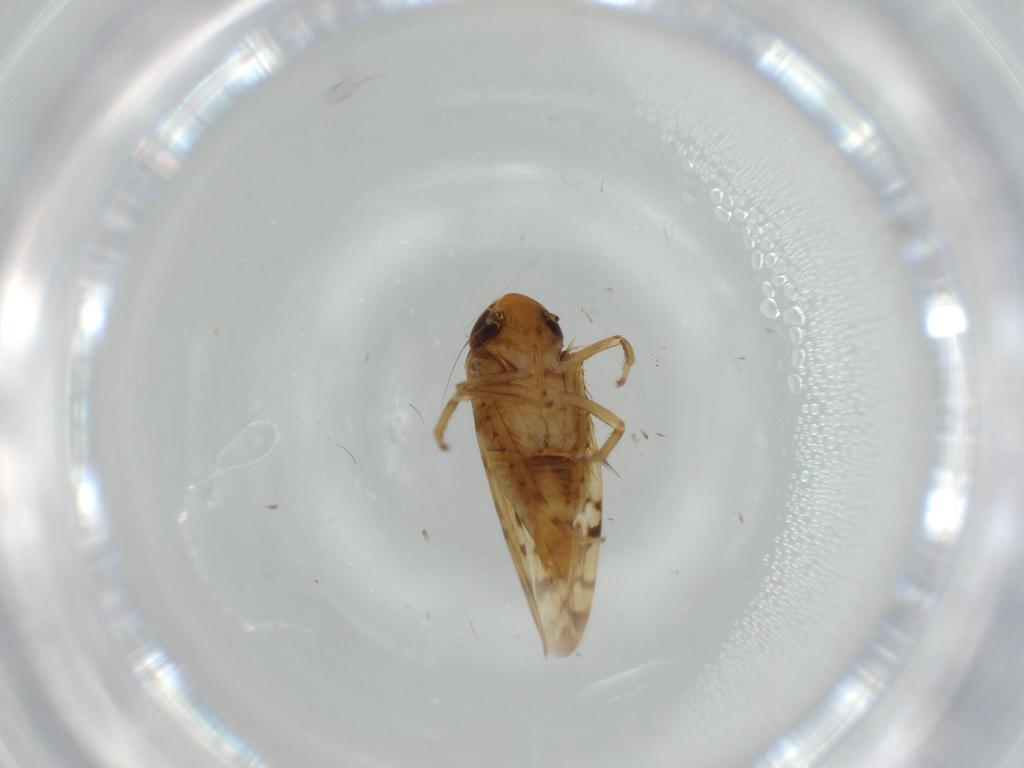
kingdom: Animalia
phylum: Arthropoda
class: Insecta
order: Hemiptera
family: Cicadellidae
